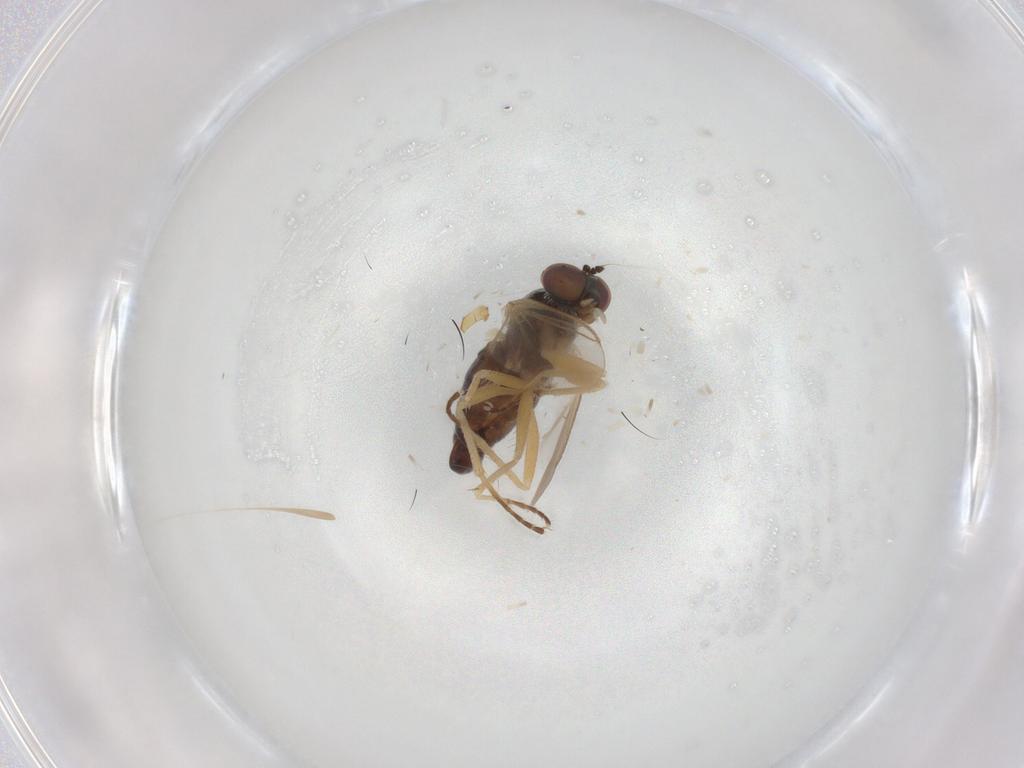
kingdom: Animalia
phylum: Arthropoda
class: Insecta
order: Diptera
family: Dolichopodidae
